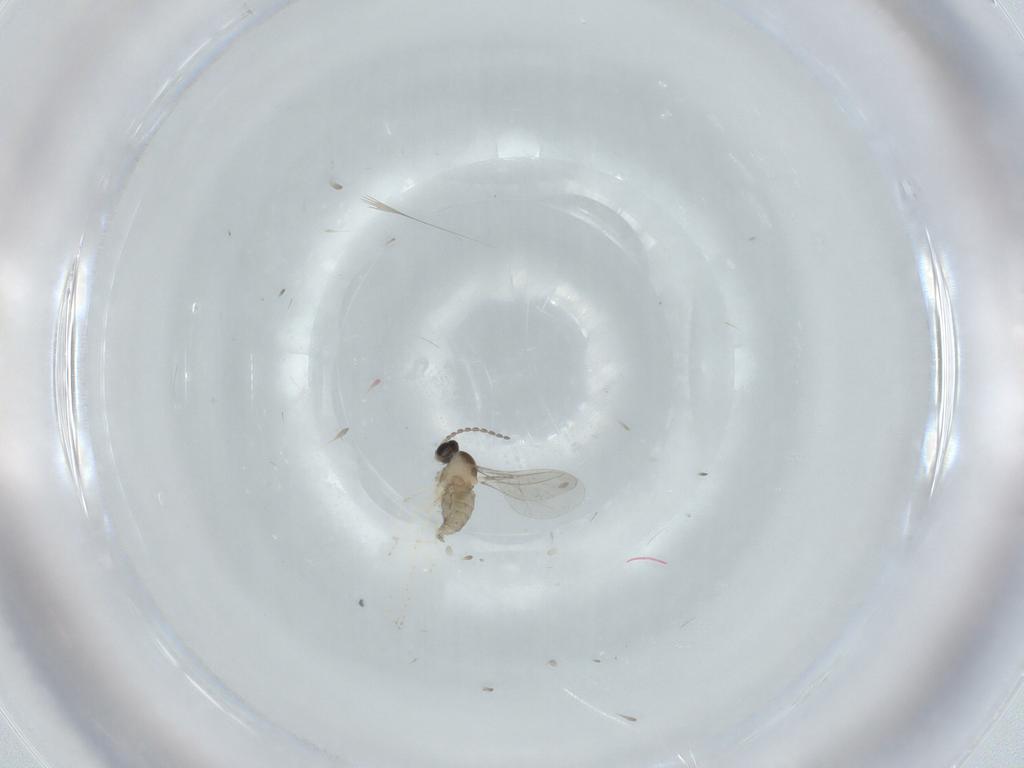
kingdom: Animalia
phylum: Arthropoda
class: Insecta
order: Diptera
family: Cecidomyiidae
